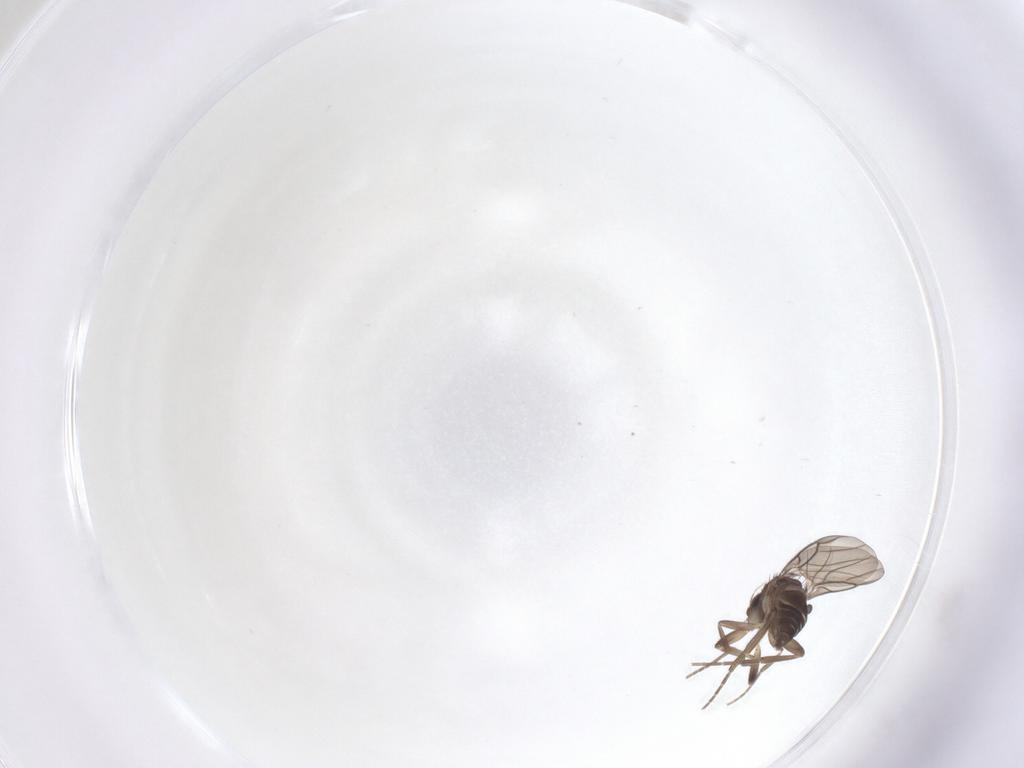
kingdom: Animalia
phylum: Arthropoda
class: Insecta
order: Diptera
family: Phoridae
